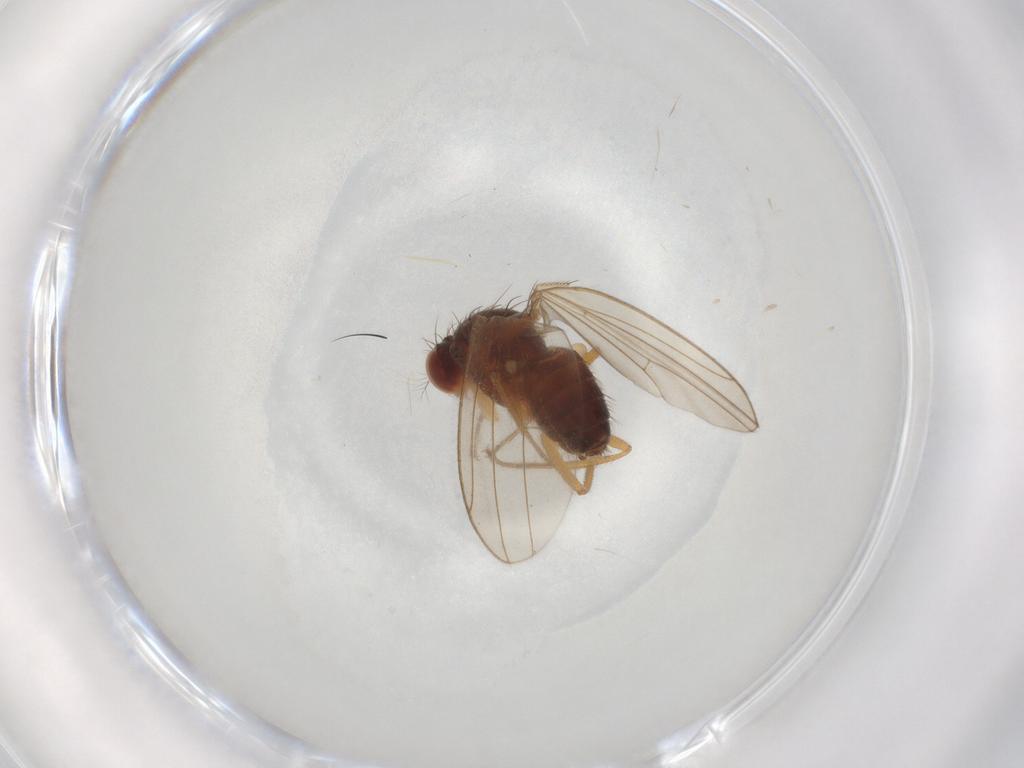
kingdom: Animalia
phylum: Arthropoda
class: Insecta
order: Diptera
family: Drosophilidae
